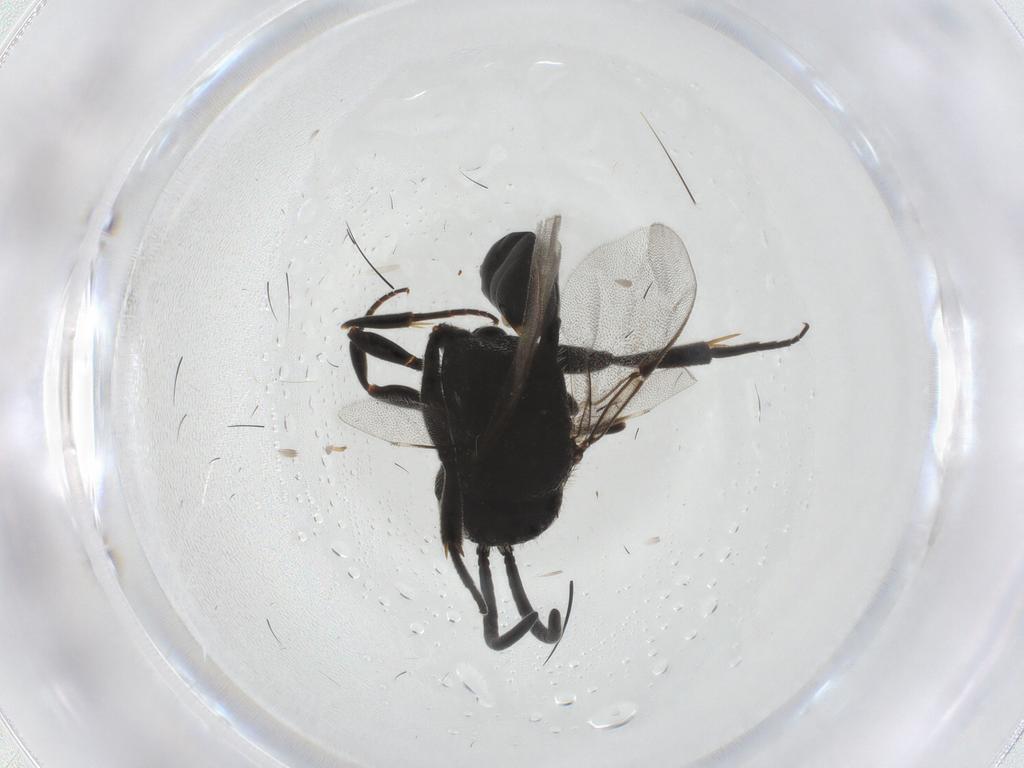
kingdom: Animalia
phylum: Arthropoda
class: Insecta
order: Hymenoptera
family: Evaniidae
